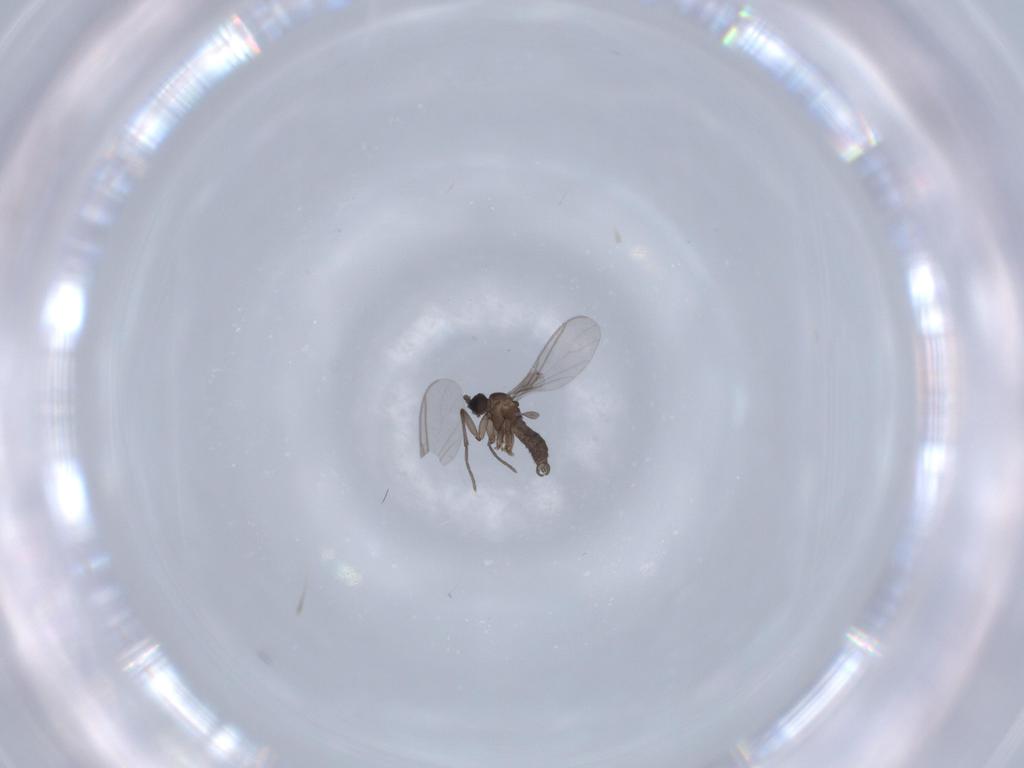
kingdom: Animalia
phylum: Arthropoda
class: Insecta
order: Diptera
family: Sciaridae
